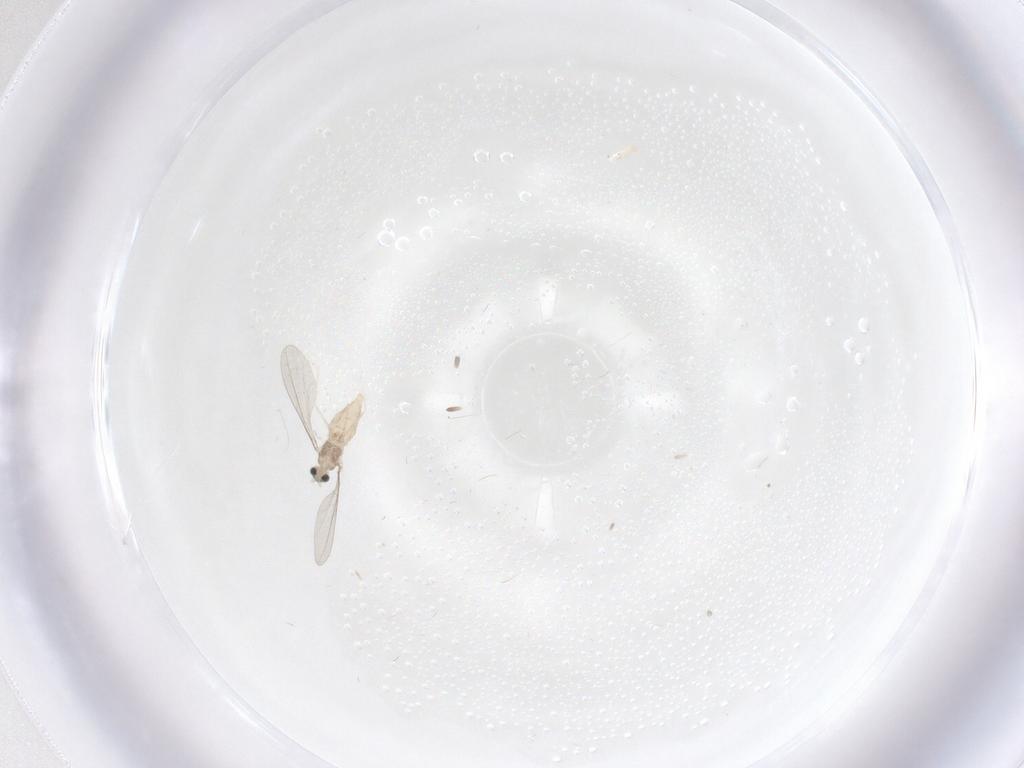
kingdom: Animalia
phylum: Arthropoda
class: Insecta
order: Diptera
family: Cecidomyiidae
